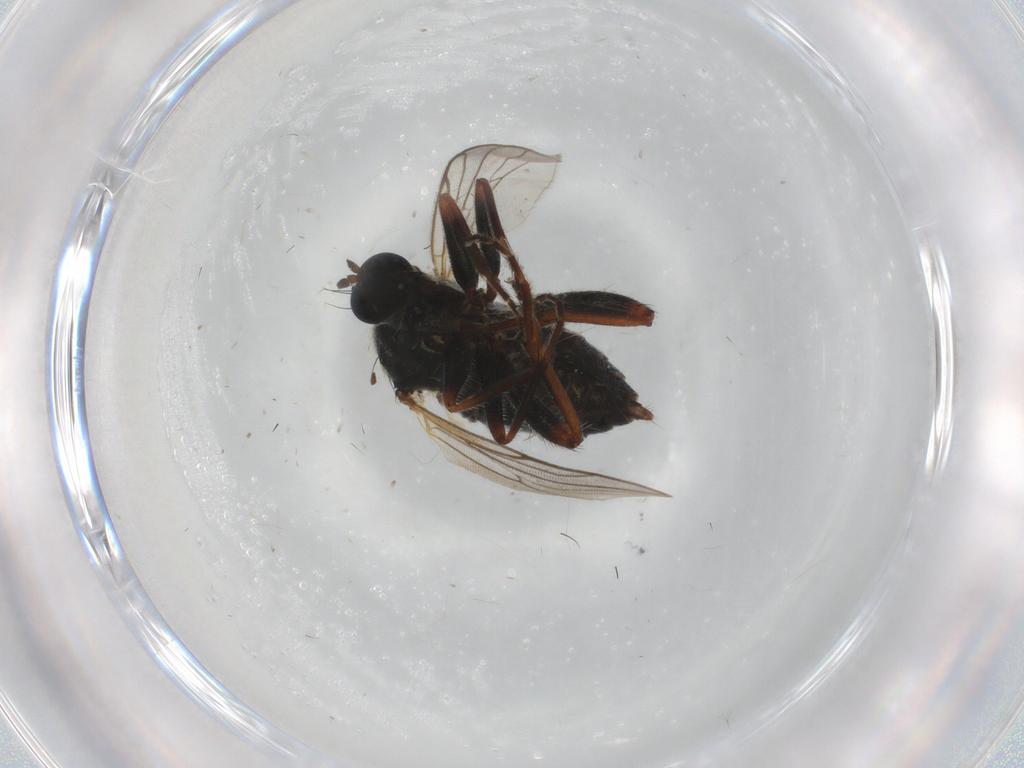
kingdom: Animalia
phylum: Arthropoda
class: Insecta
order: Diptera
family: Hybotidae
